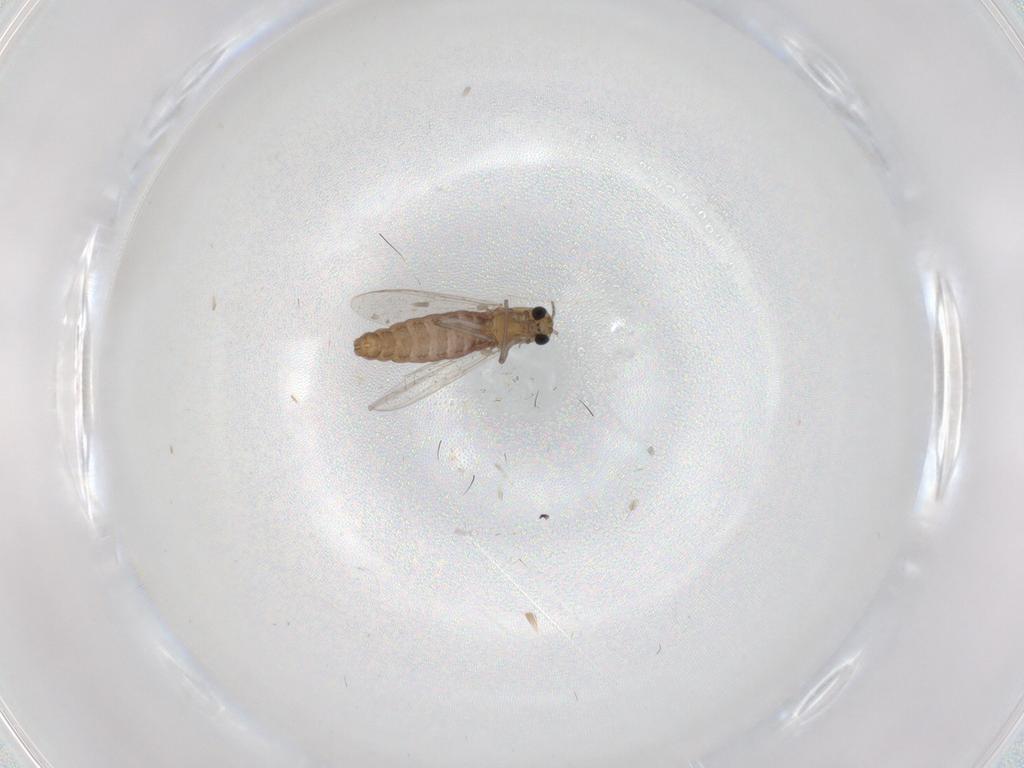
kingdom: Animalia
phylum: Arthropoda
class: Insecta
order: Diptera
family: Chironomidae
